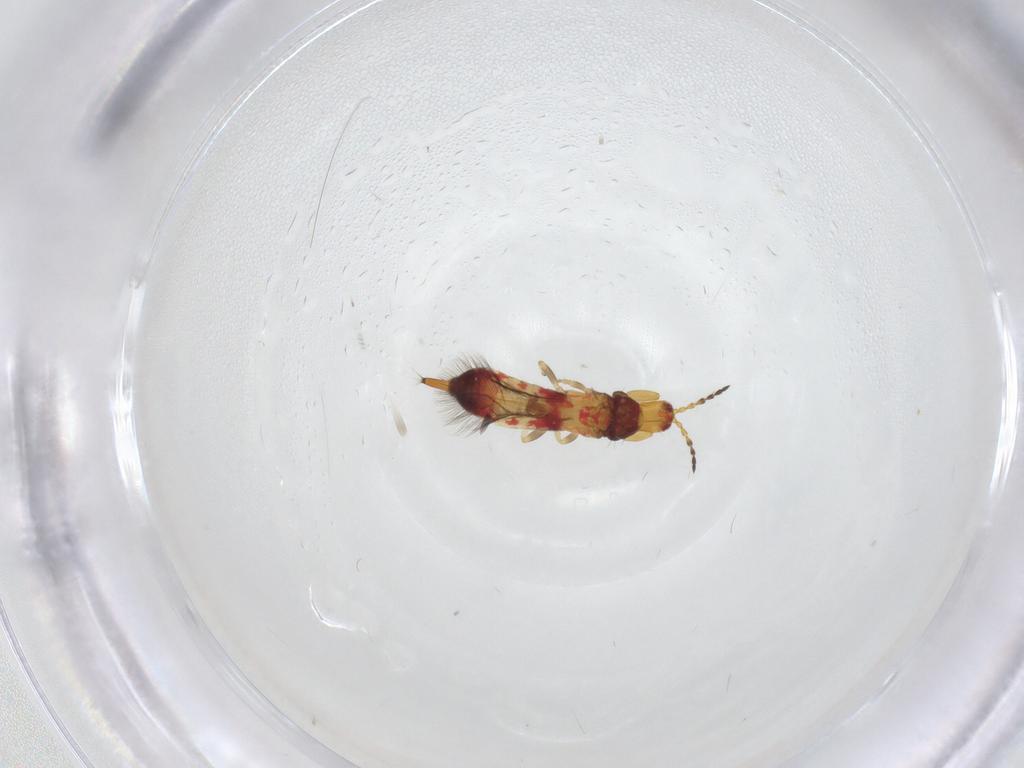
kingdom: Animalia
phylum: Arthropoda
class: Insecta
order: Thysanoptera
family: Phlaeothripidae
